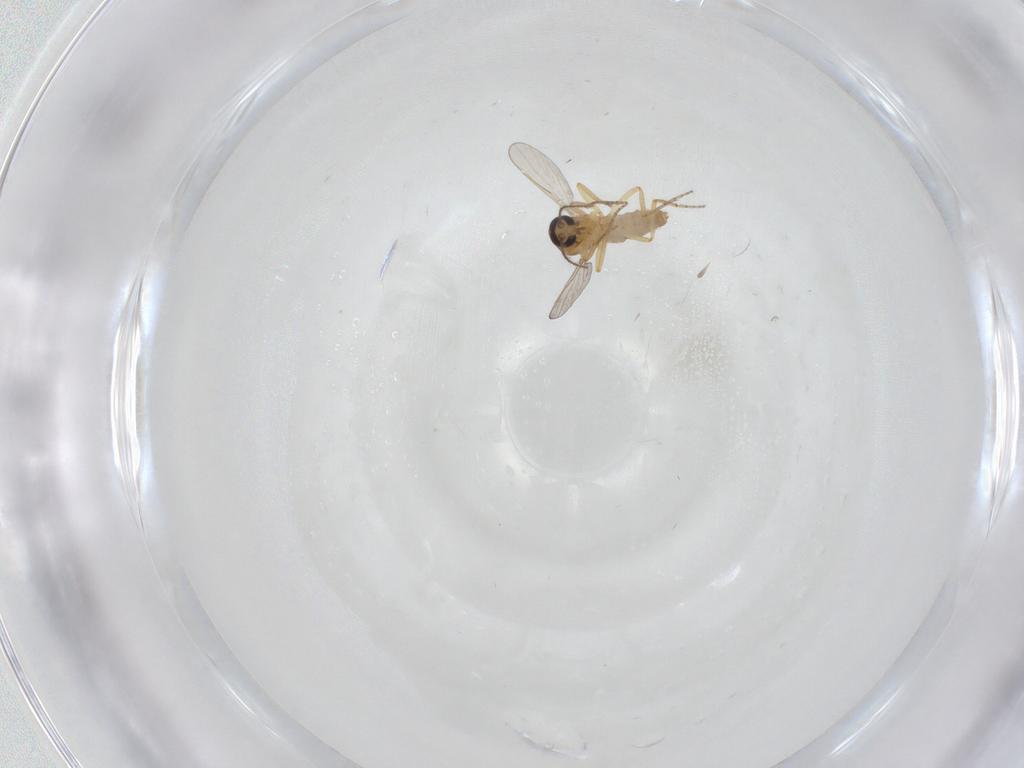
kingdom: Animalia
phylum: Arthropoda
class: Insecta
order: Diptera
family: Ceratopogonidae
